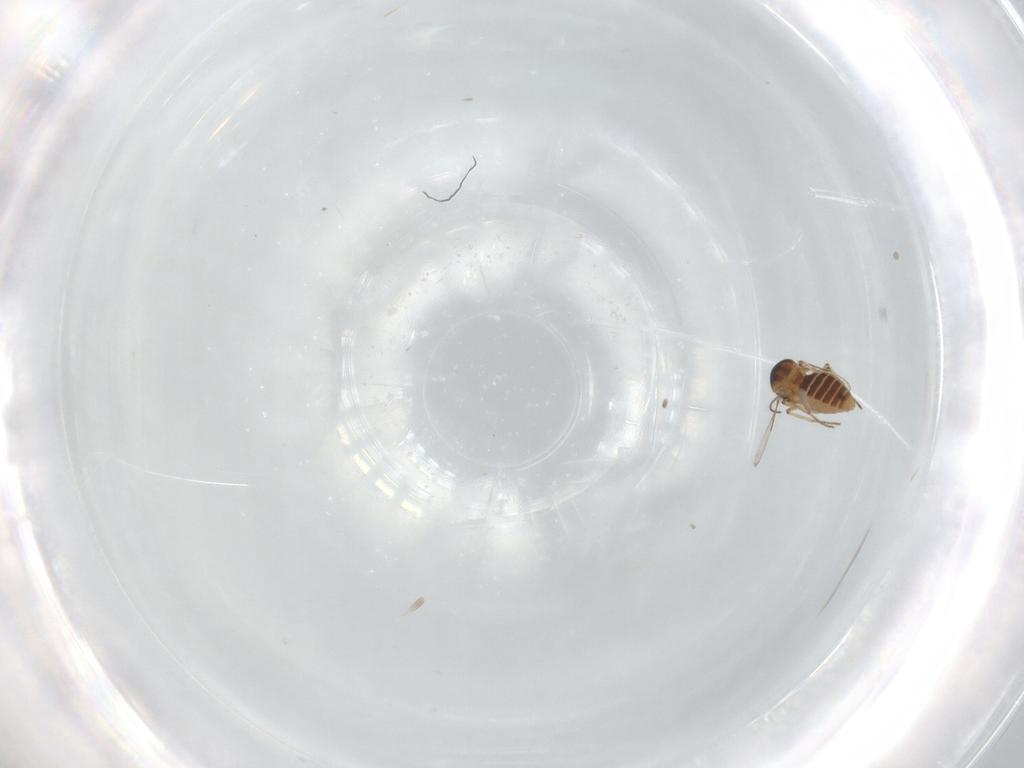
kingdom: Animalia
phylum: Arthropoda
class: Insecta
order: Diptera
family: Ceratopogonidae
